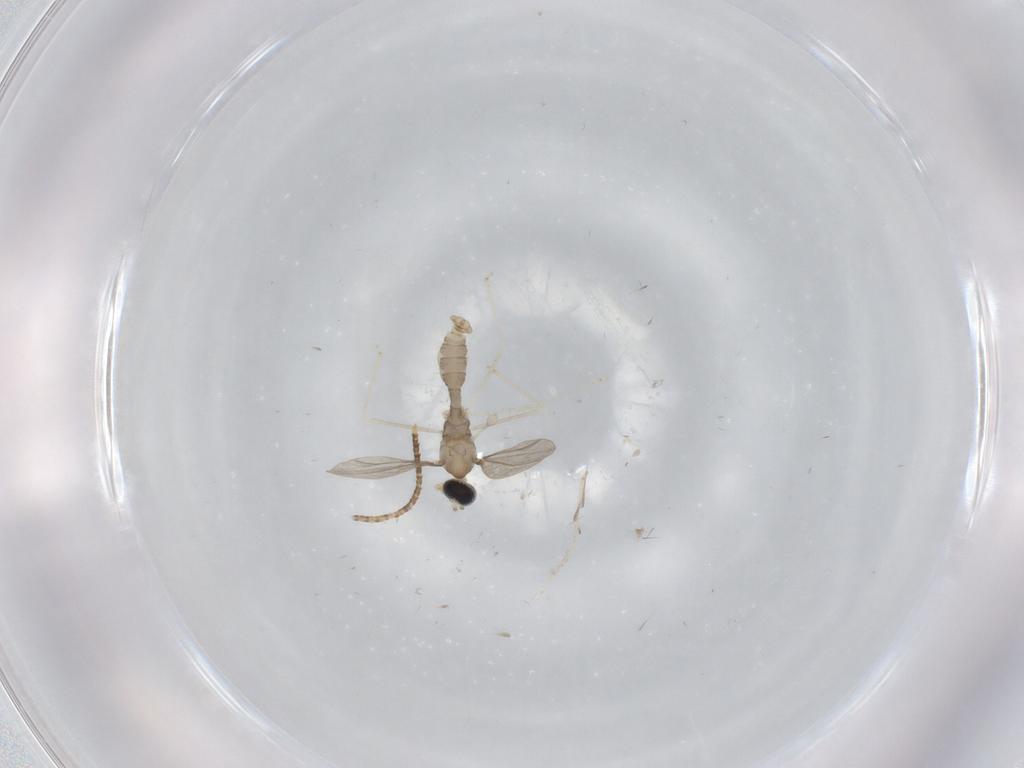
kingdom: Animalia
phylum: Arthropoda
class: Insecta
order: Diptera
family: Cecidomyiidae
